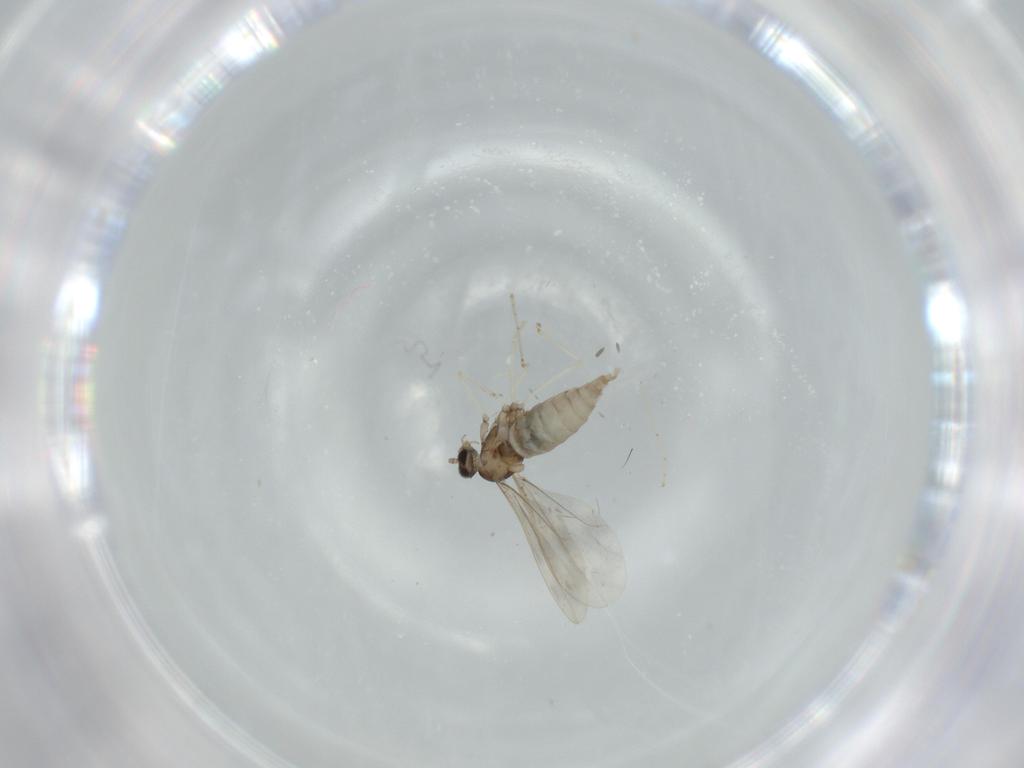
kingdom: Animalia
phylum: Arthropoda
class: Insecta
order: Diptera
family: Cecidomyiidae
